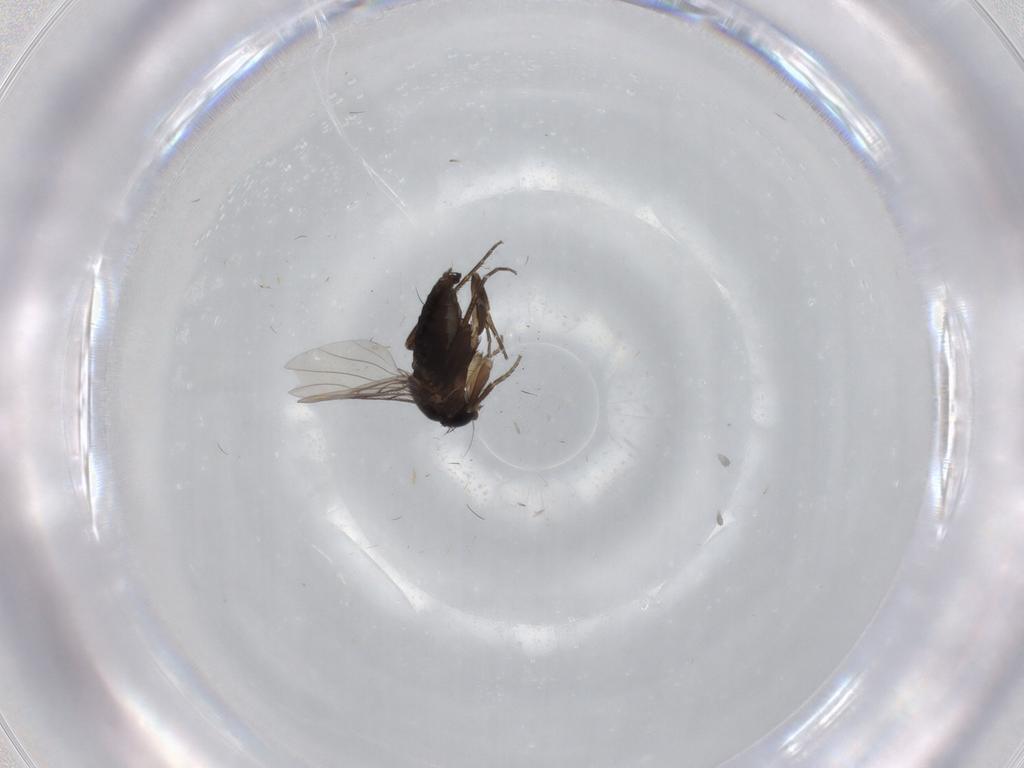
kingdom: Animalia
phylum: Arthropoda
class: Insecta
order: Diptera
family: Phoridae
